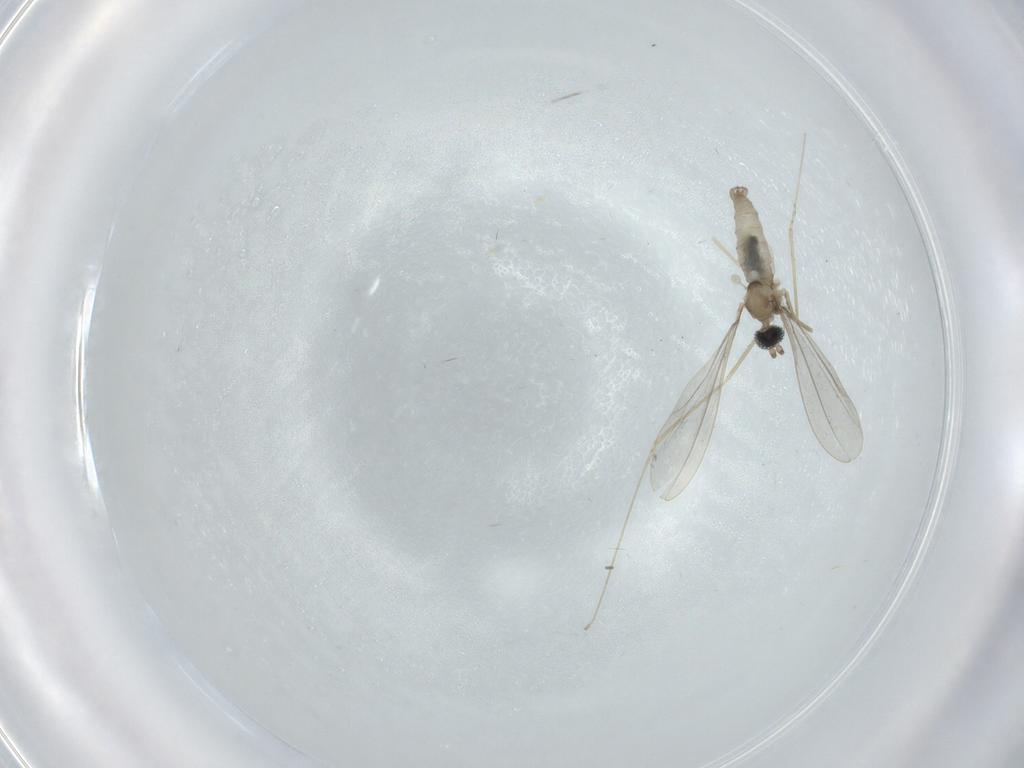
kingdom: Animalia
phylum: Arthropoda
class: Insecta
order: Diptera
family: Cecidomyiidae
